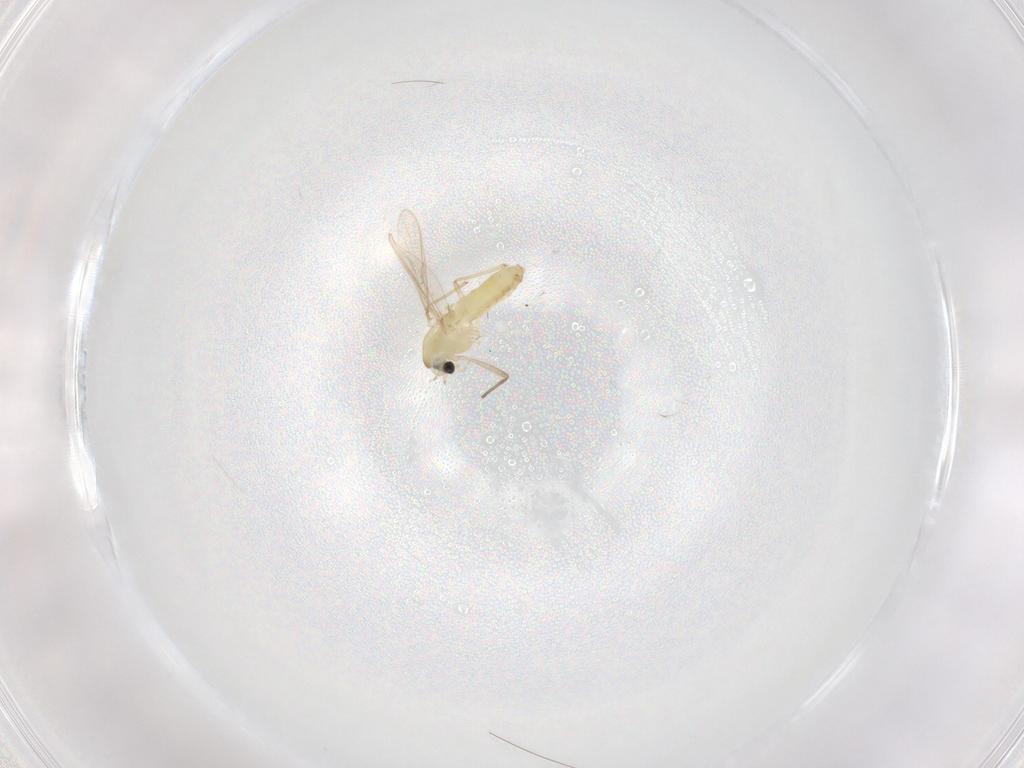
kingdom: Animalia
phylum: Arthropoda
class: Insecta
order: Diptera
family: Chironomidae
